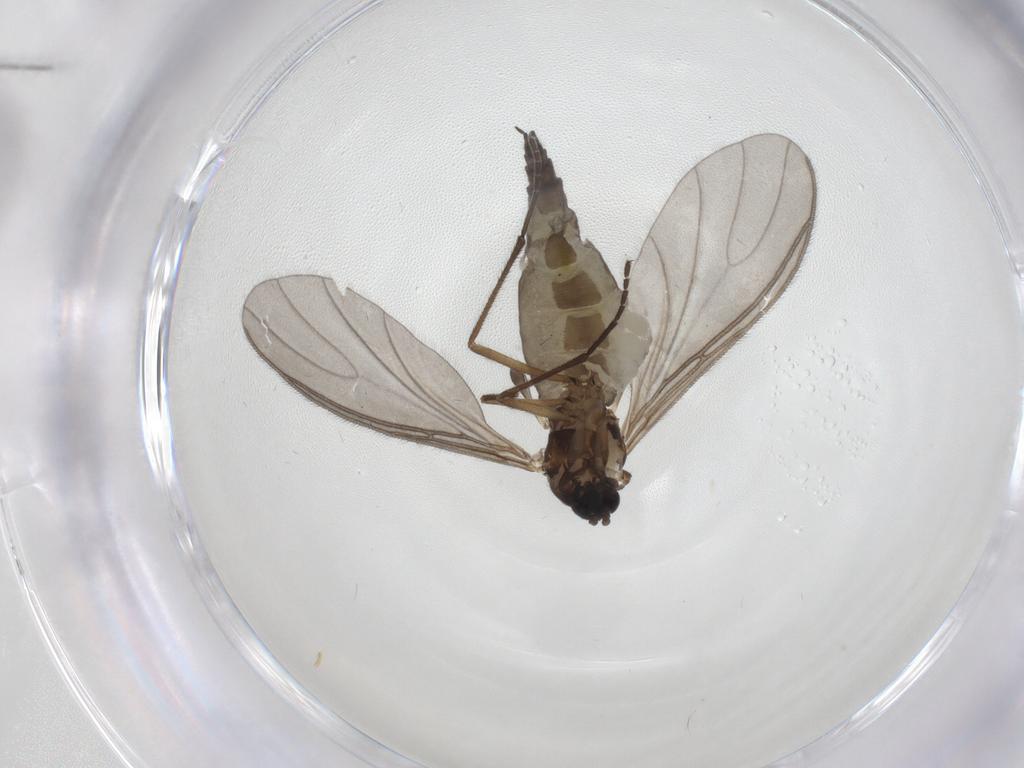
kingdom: Animalia
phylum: Arthropoda
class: Insecta
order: Diptera
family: Sciaridae
